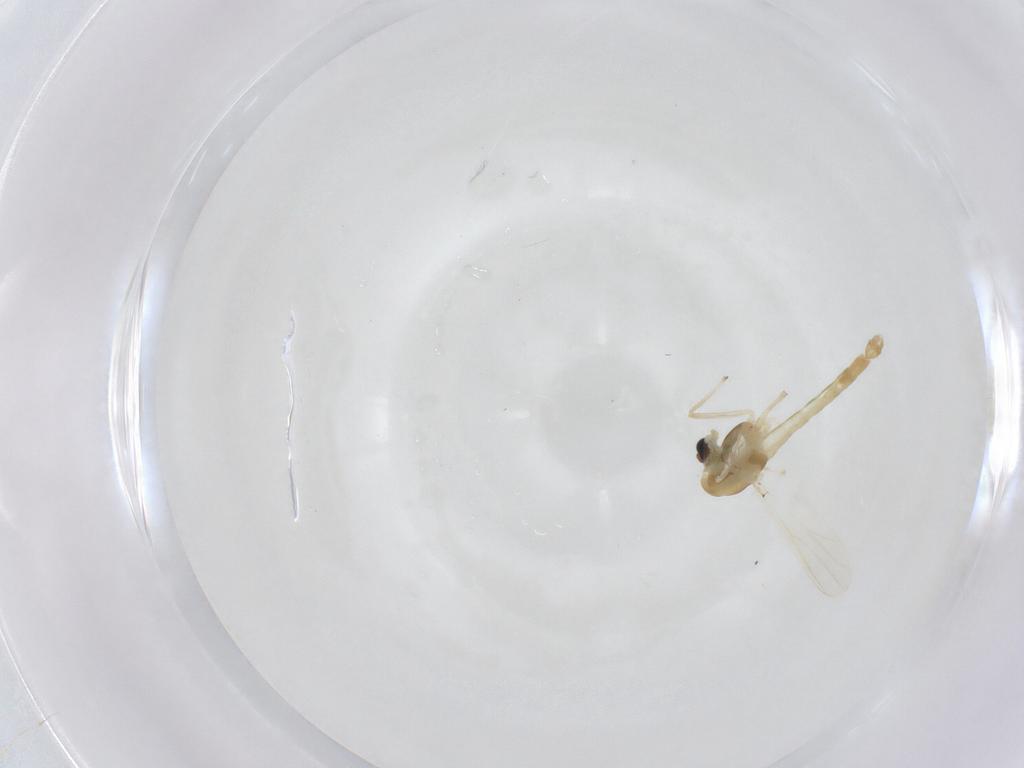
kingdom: Animalia
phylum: Arthropoda
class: Insecta
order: Diptera
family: Chironomidae
